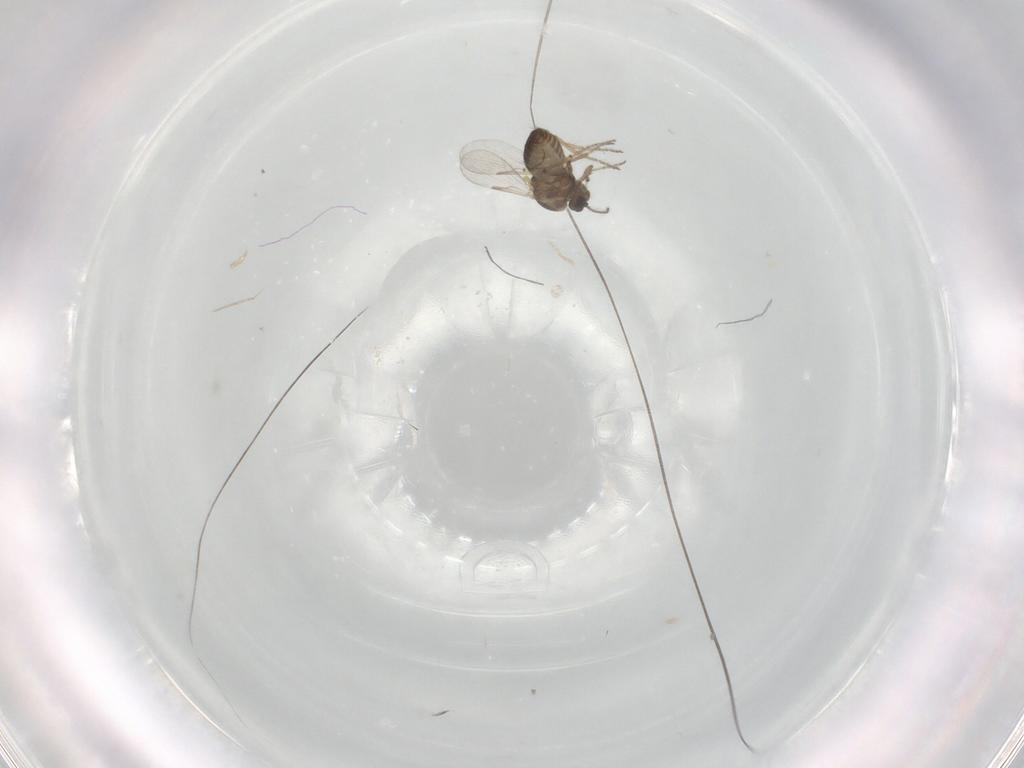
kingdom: Animalia
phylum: Arthropoda
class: Insecta
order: Diptera
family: Ceratopogonidae
